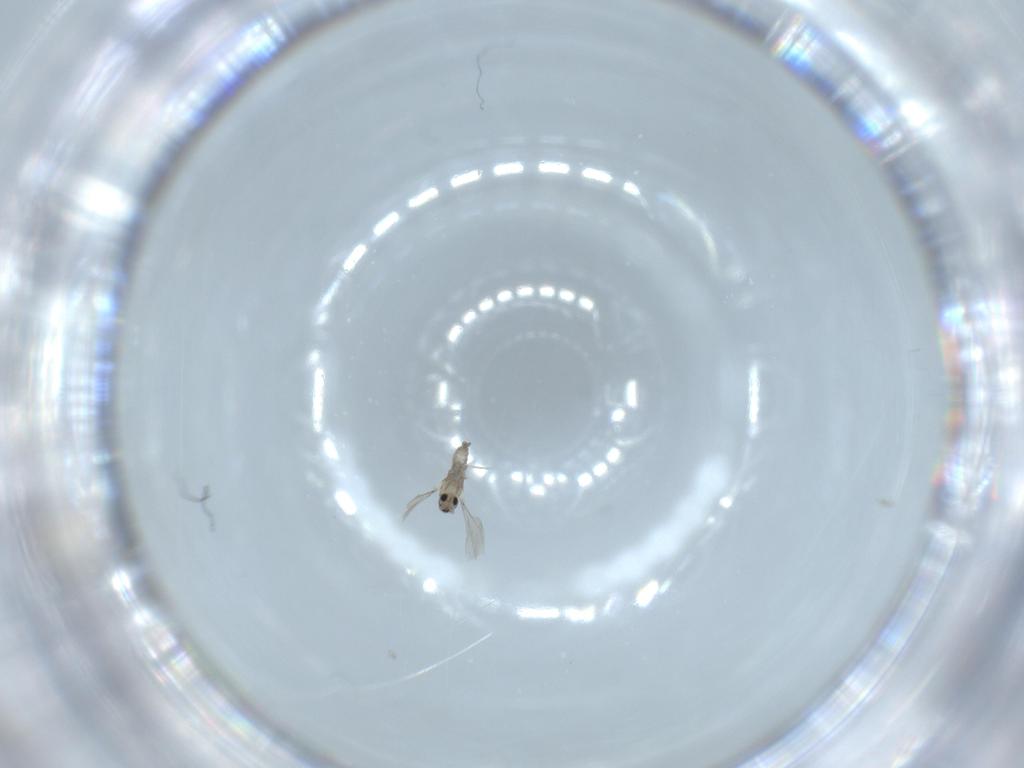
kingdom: Animalia
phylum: Arthropoda
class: Insecta
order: Diptera
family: Cecidomyiidae
